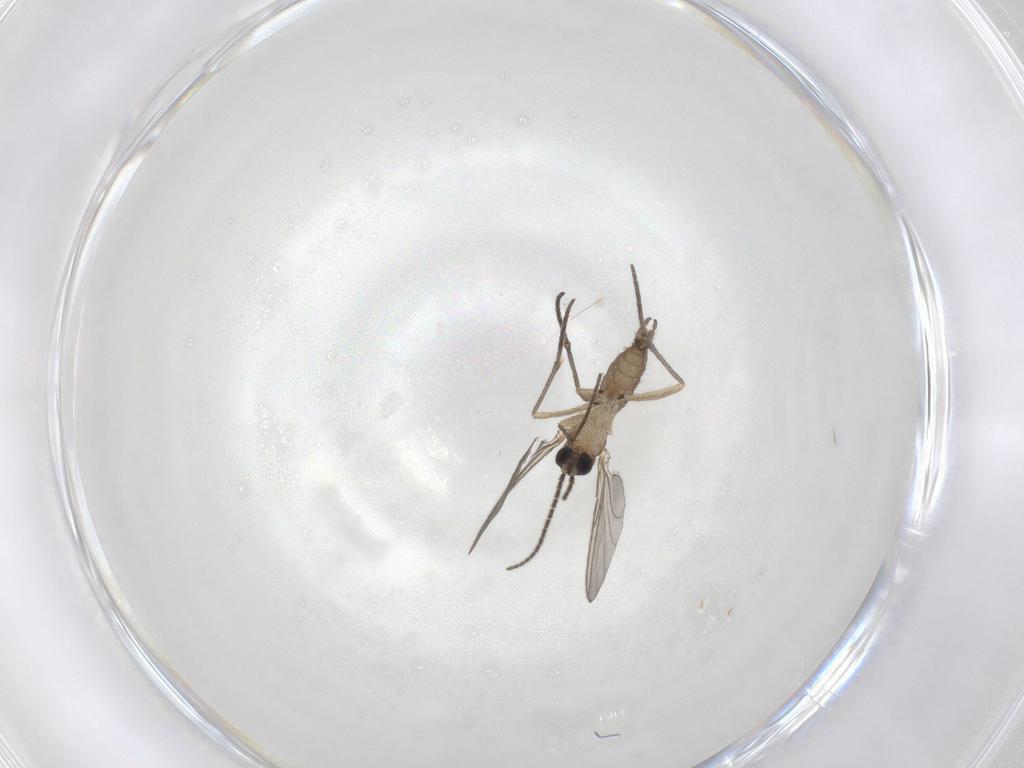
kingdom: Animalia
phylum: Arthropoda
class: Insecta
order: Diptera
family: Sciaridae
